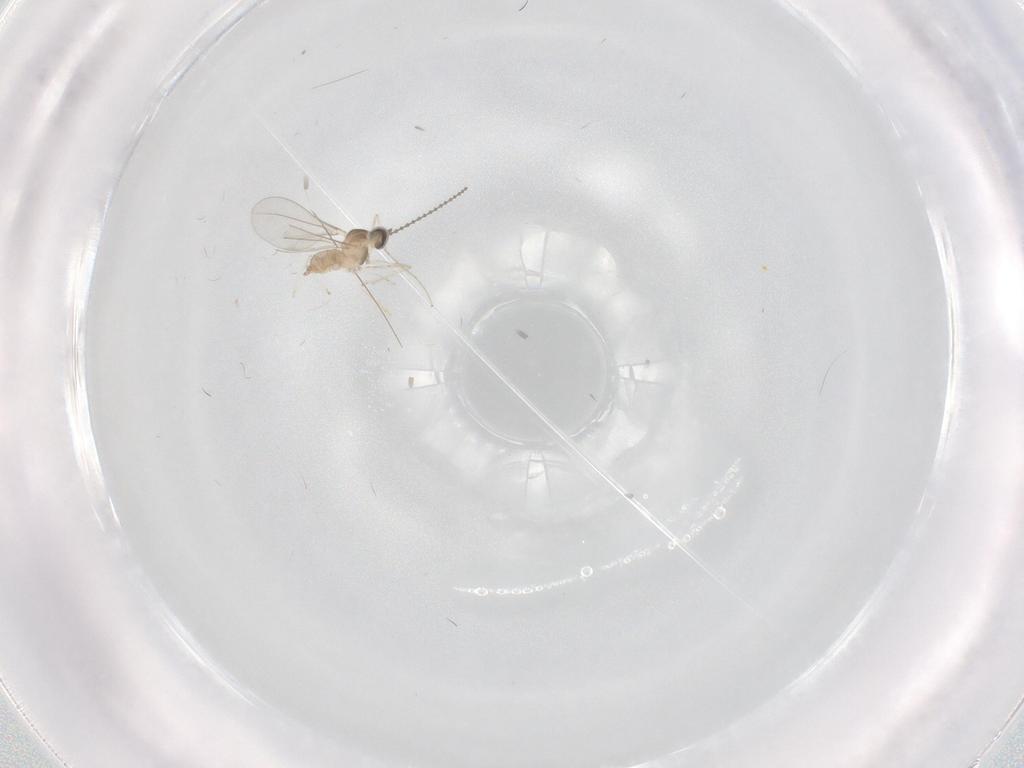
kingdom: Animalia
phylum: Arthropoda
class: Insecta
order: Diptera
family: Cecidomyiidae
